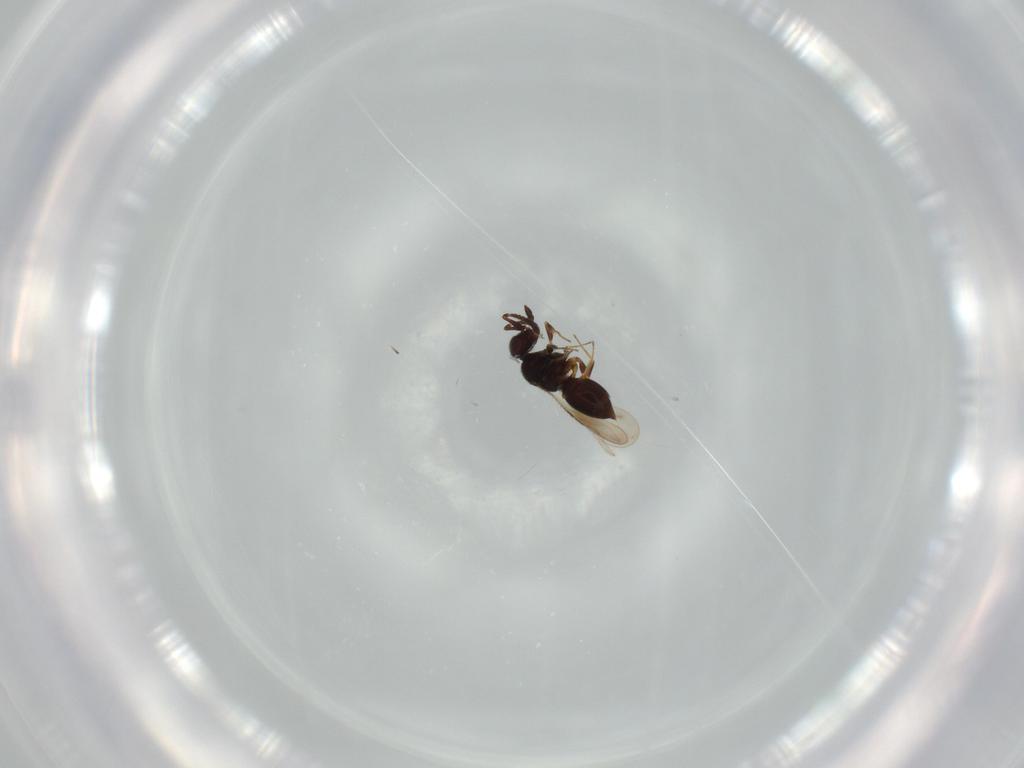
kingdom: Animalia
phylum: Arthropoda
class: Insecta
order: Hymenoptera
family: Ceraphronidae
